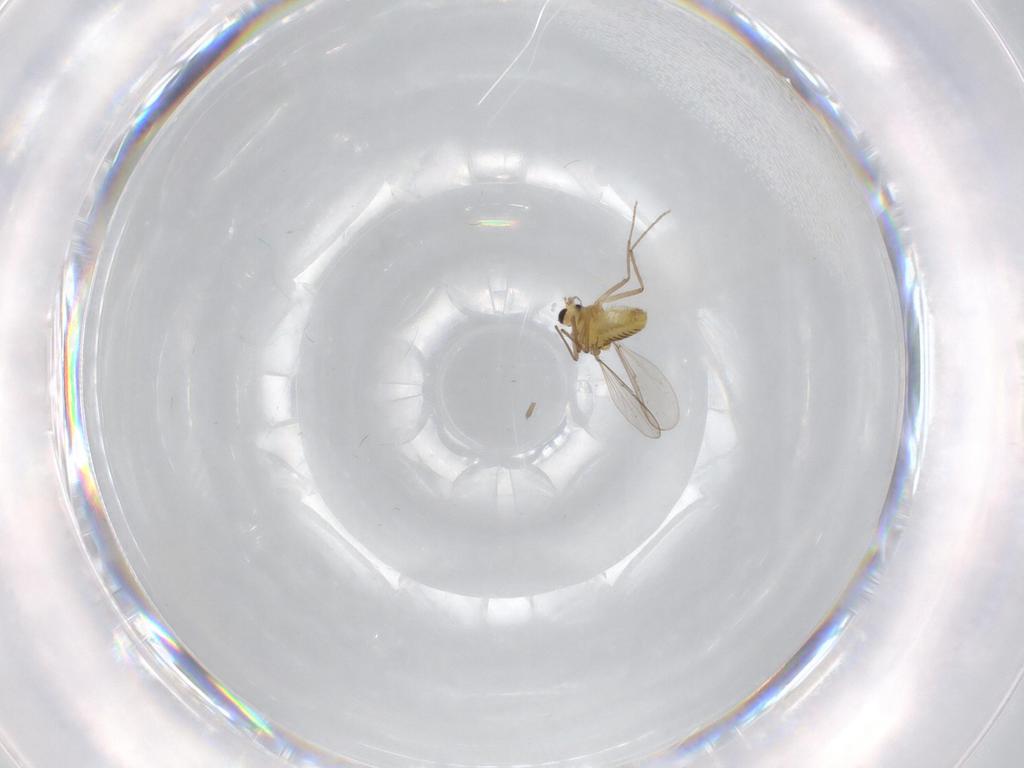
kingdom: Animalia
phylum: Arthropoda
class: Insecta
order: Diptera
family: Chironomidae
